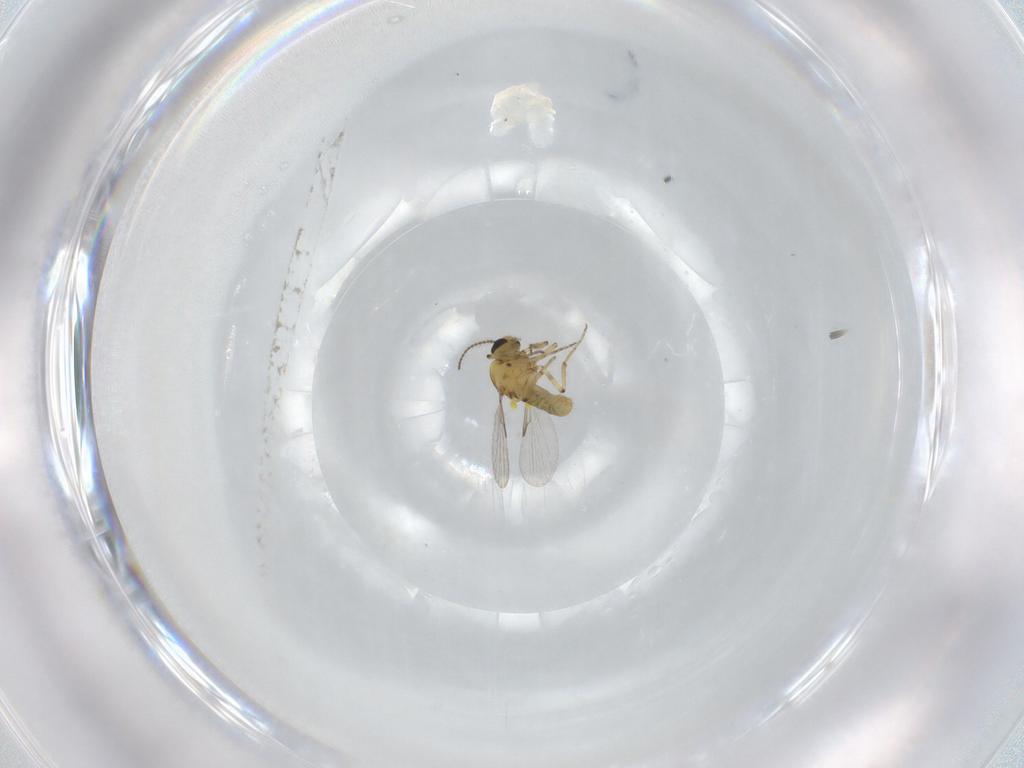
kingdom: Animalia
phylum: Arthropoda
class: Insecta
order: Diptera
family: Ceratopogonidae
